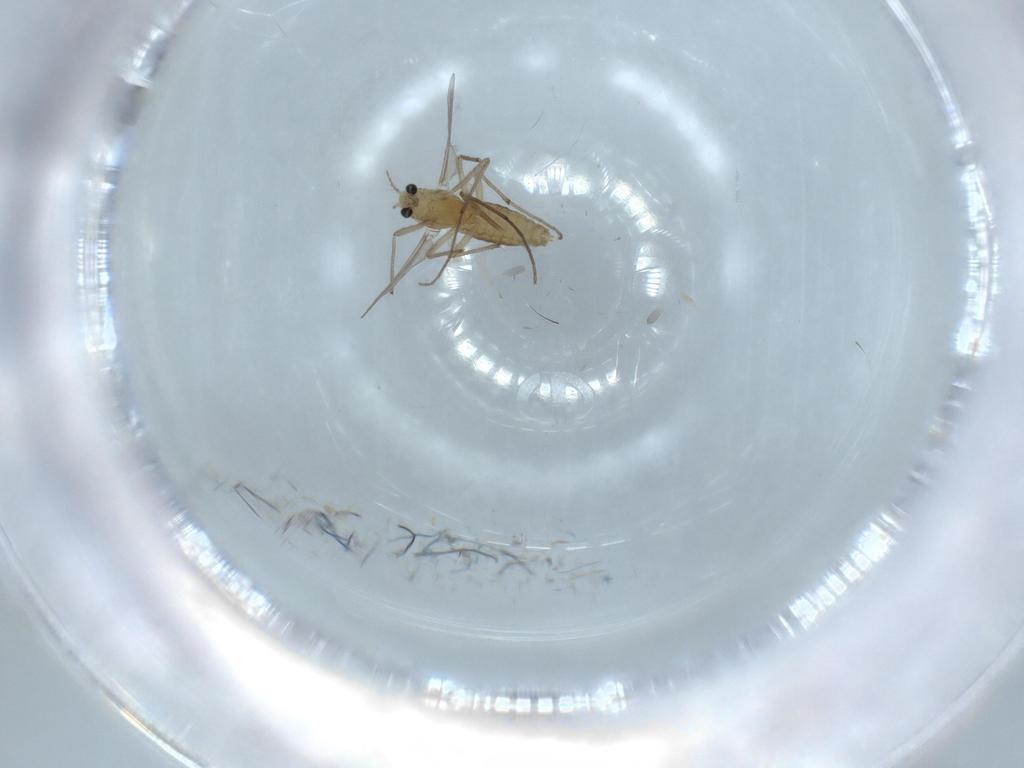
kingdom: Animalia
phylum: Arthropoda
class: Insecta
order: Diptera
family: Chironomidae
